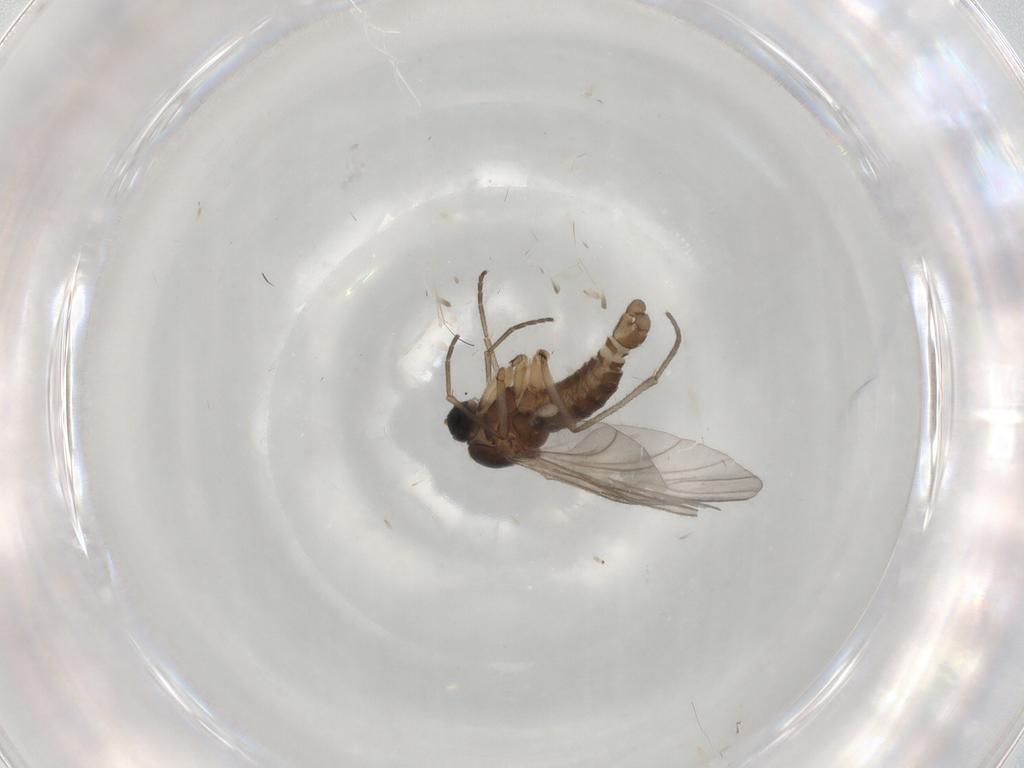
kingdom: Animalia
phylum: Arthropoda
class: Insecta
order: Diptera
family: Sciaridae
